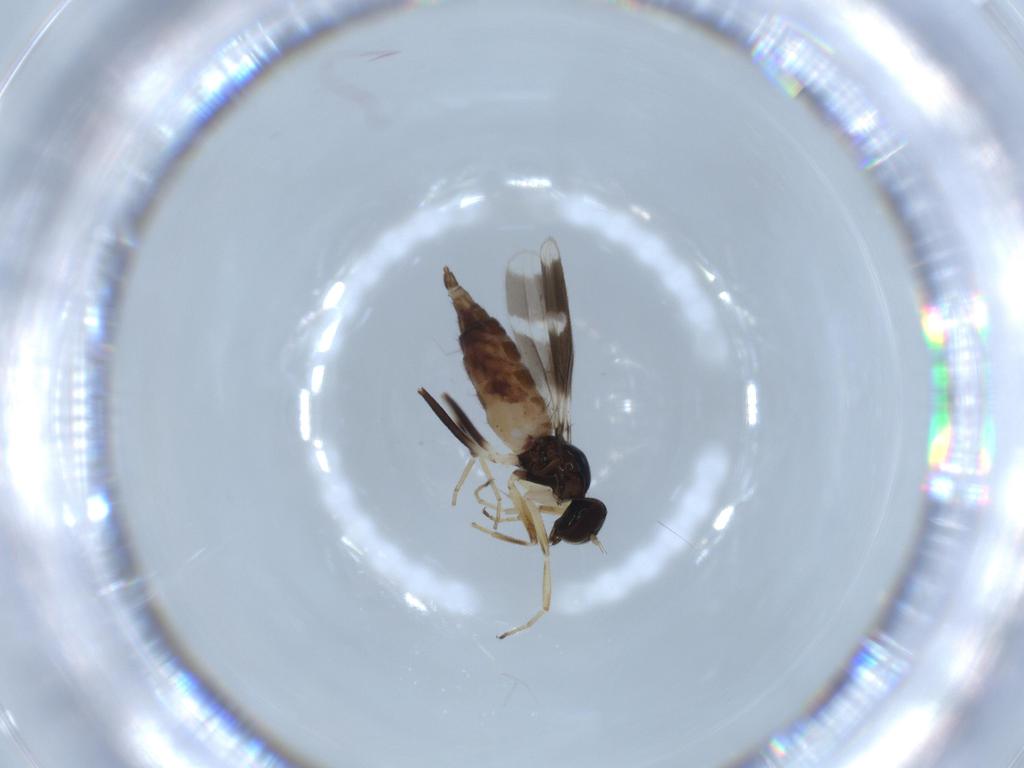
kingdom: Animalia
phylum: Arthropoda
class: Insecta
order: Diptera
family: Hybotidae
